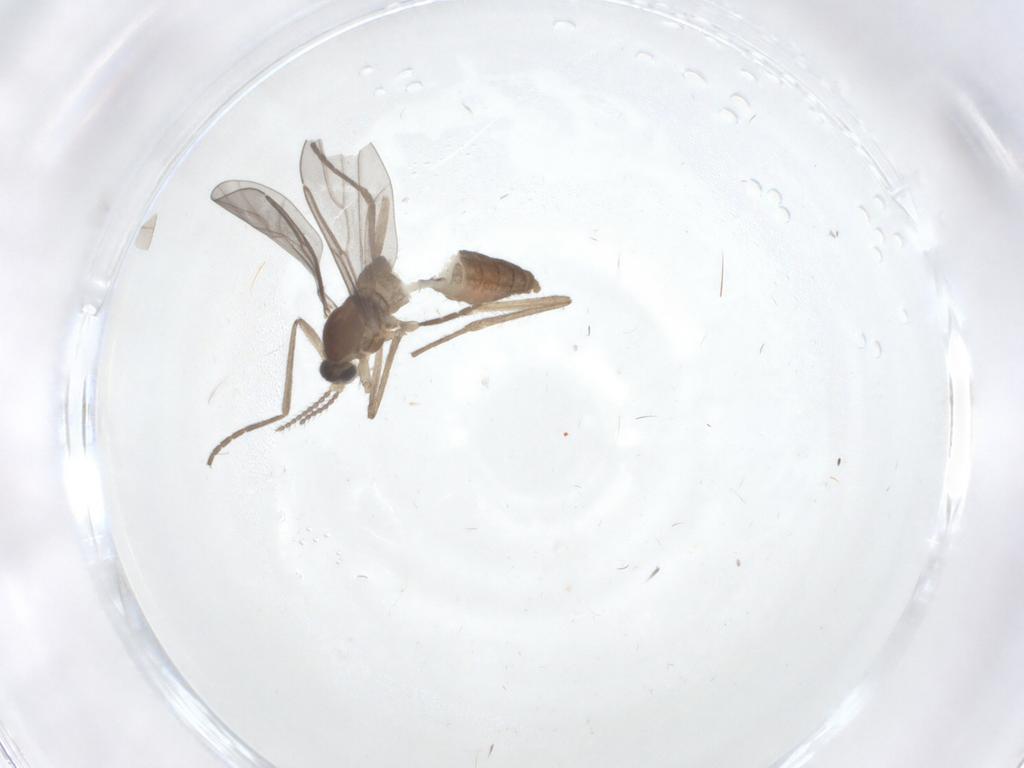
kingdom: Animalia
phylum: Arthropoda
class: Insecta
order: Diptera
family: Cecidomyiidae
